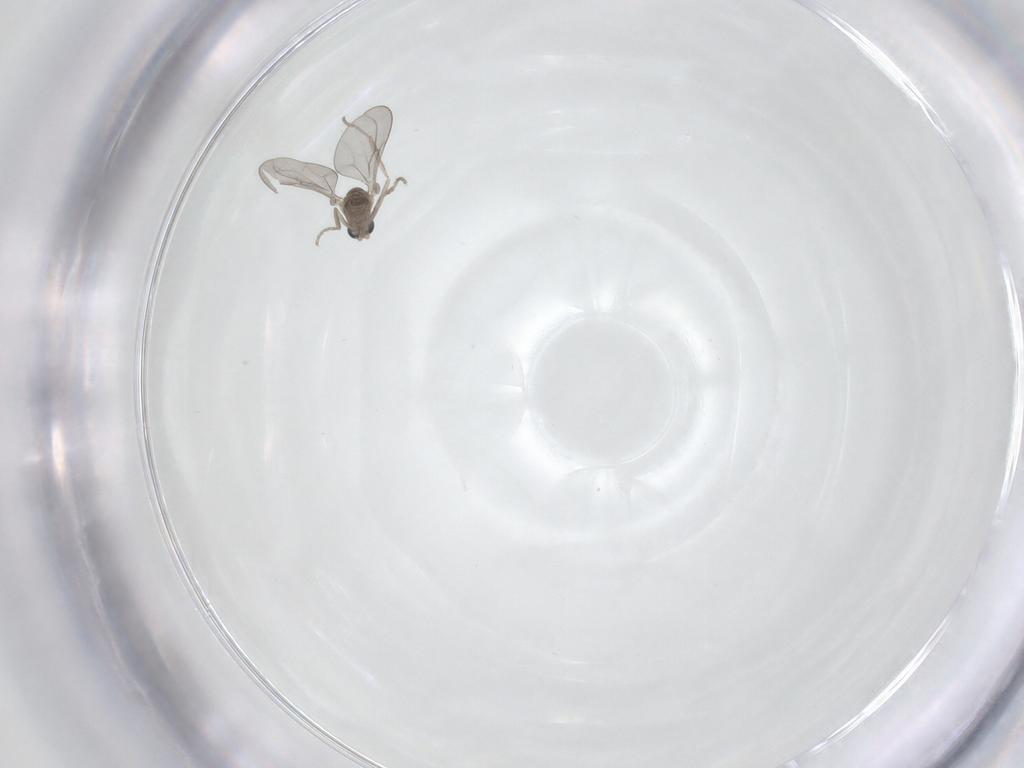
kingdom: Animalia
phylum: Arthropoda
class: Insecta
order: Diptera
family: Cecidomyiidae
